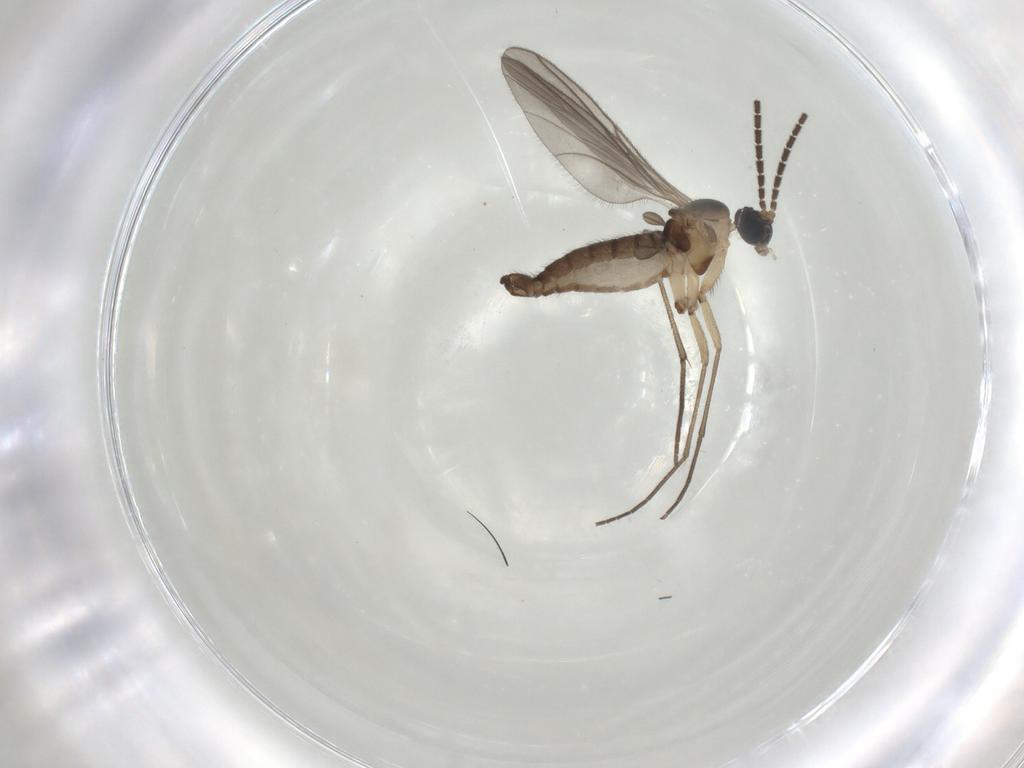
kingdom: Animalia
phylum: Arthropoda
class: Insecta
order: Diptera
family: Sciaridae
